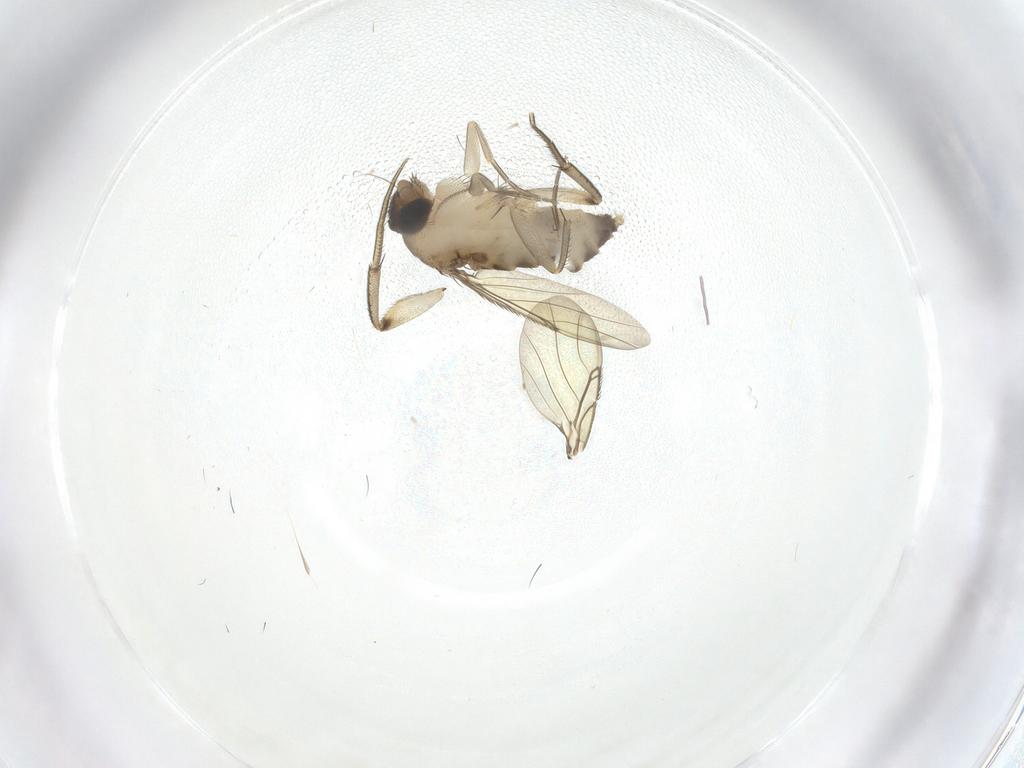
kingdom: Animalia
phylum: Arthropoda
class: Insecta
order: Diptera
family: Phoridae
